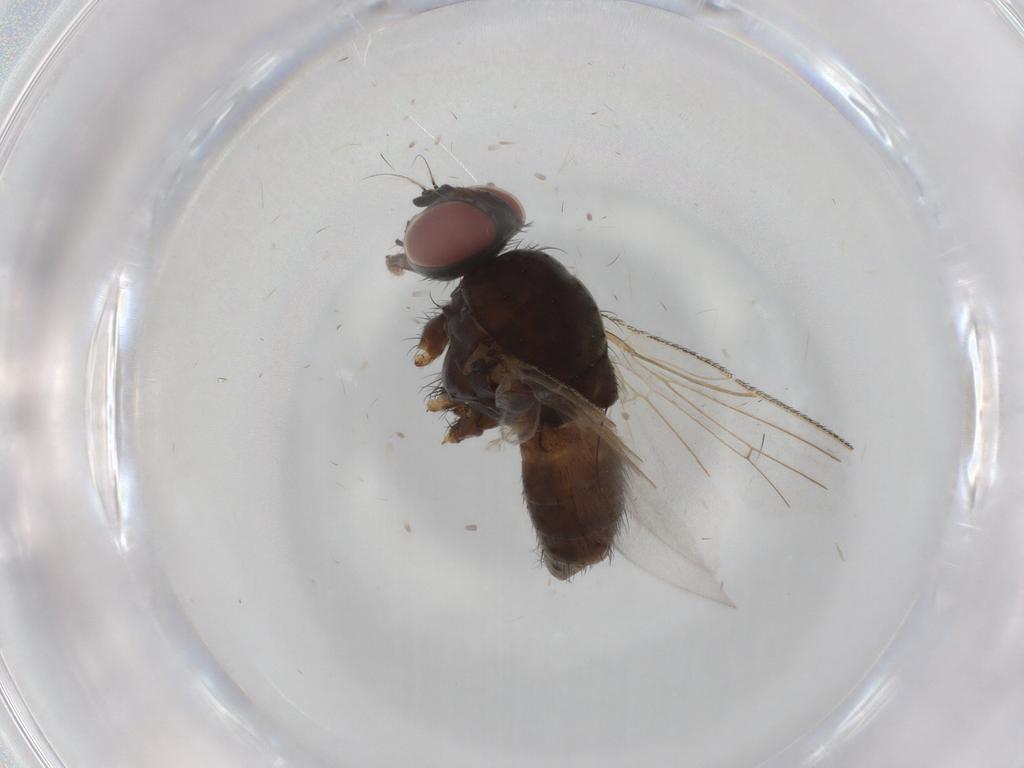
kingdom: Animalia
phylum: Arthropoda
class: Insecta
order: Diptera
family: Muscidae
